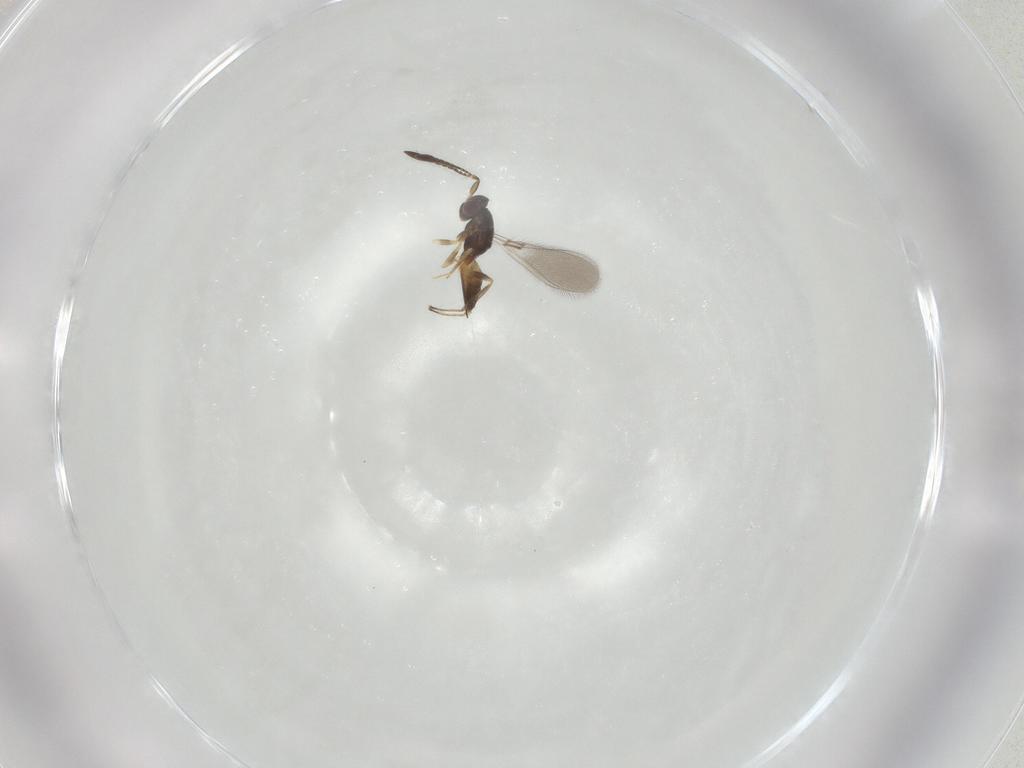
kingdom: Animalia
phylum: Arthropoda
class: Insecta
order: Hymenoptera
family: Mymaridae
